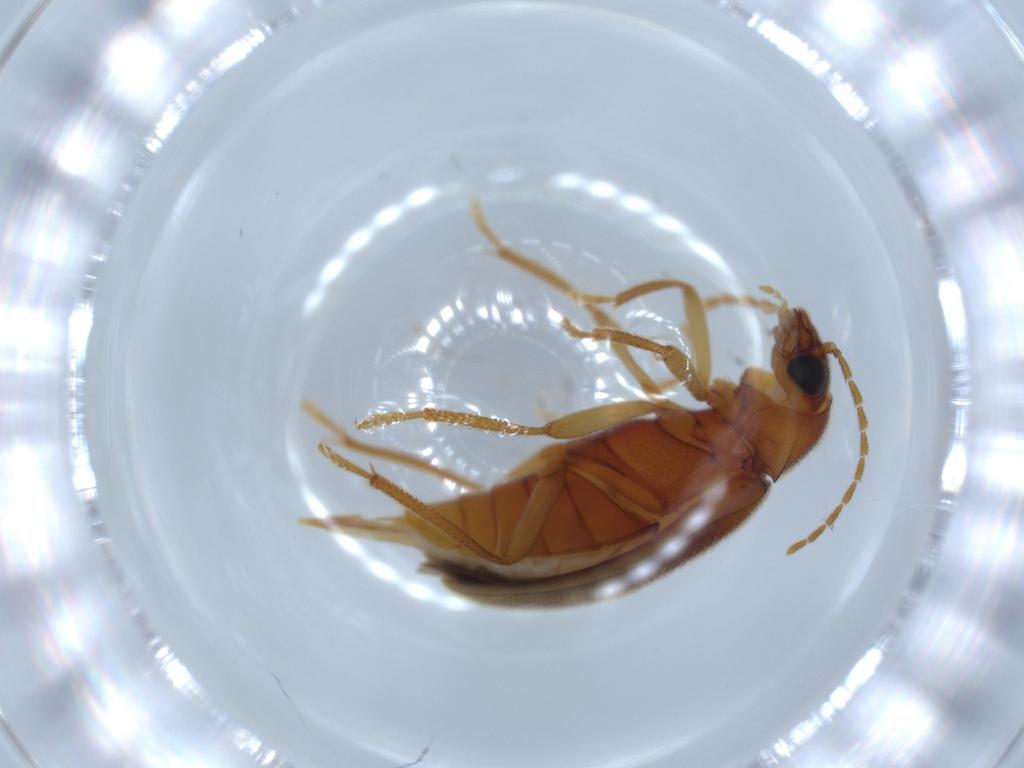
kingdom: Animalia
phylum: Arthropoda
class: Insecta
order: Coleoptera
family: Ptilodactylidae
